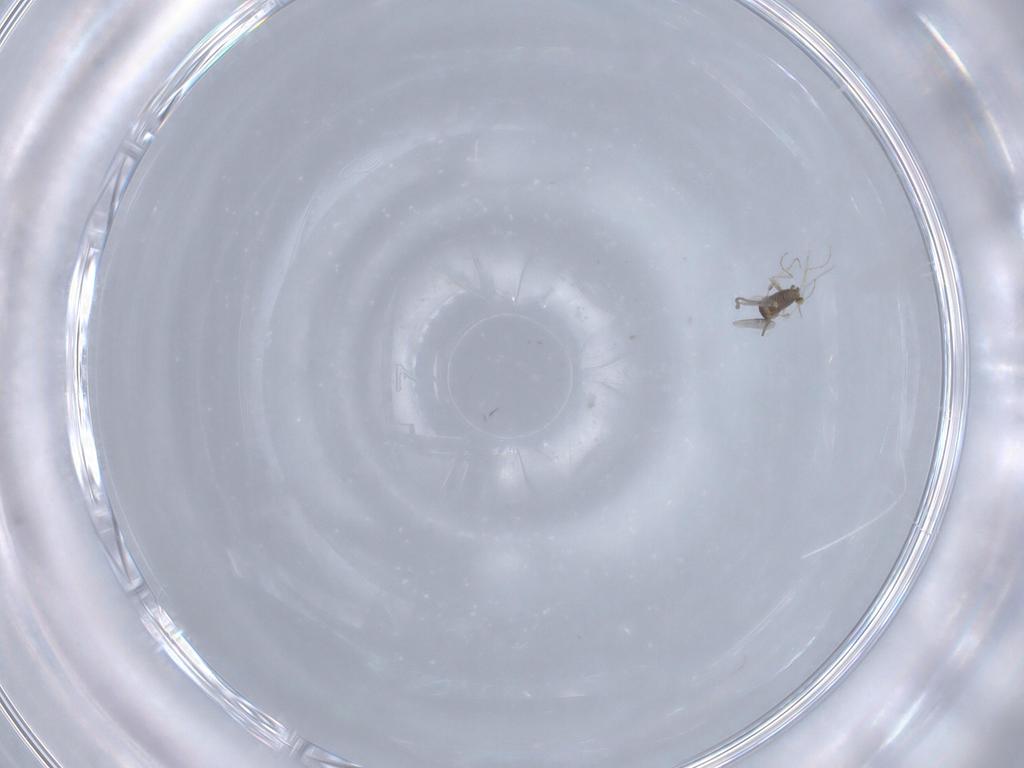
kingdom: Animalia
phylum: Arthropoda
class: Insecta
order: Diptera
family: Cecidomyiidae
